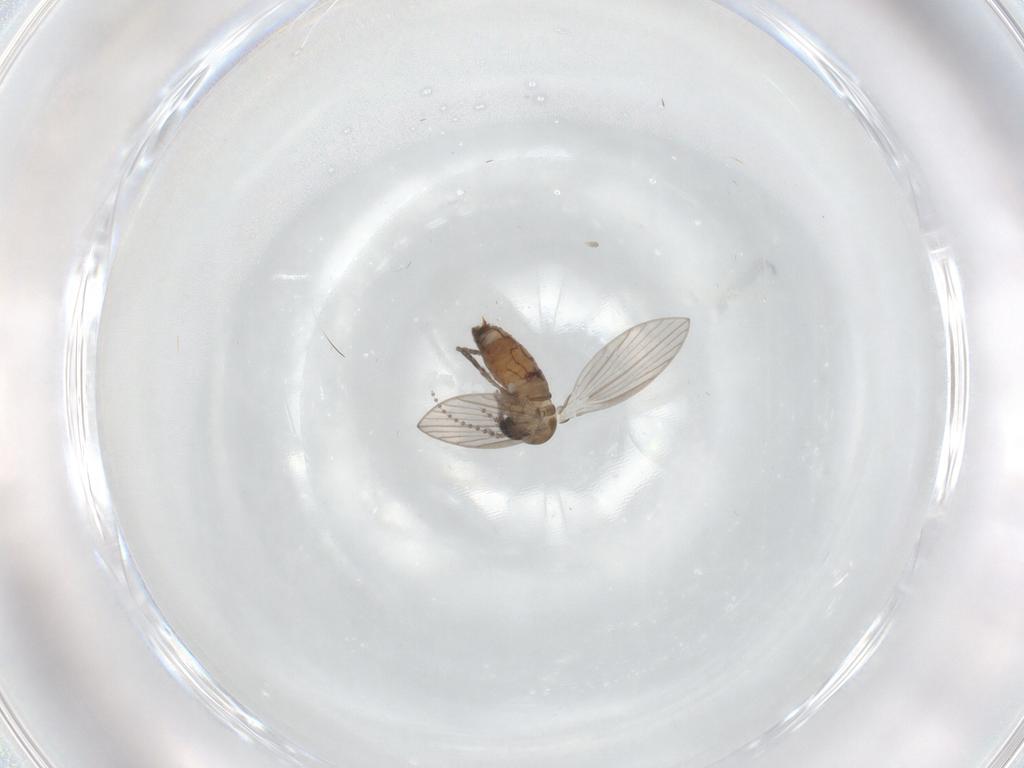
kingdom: Animalia
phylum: Arthropoda
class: Insecta
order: Diptera
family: Psychodidae
